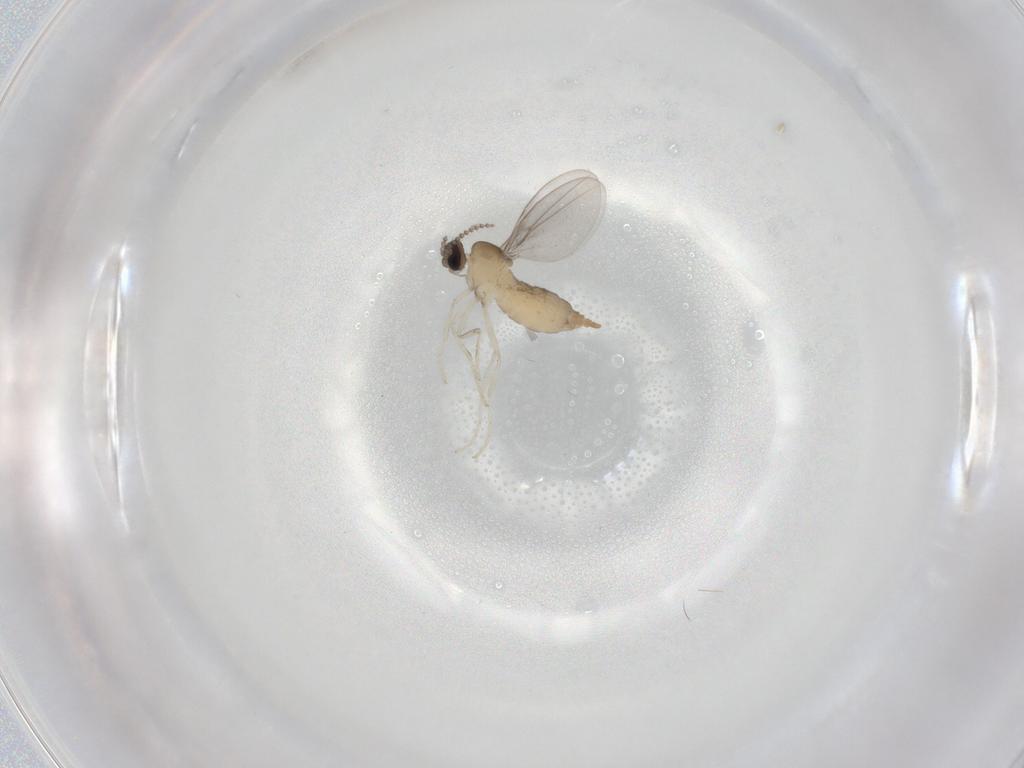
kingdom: Animalia
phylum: Arthropoda
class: Insecta
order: Diptera
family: Cecidomyiidae
